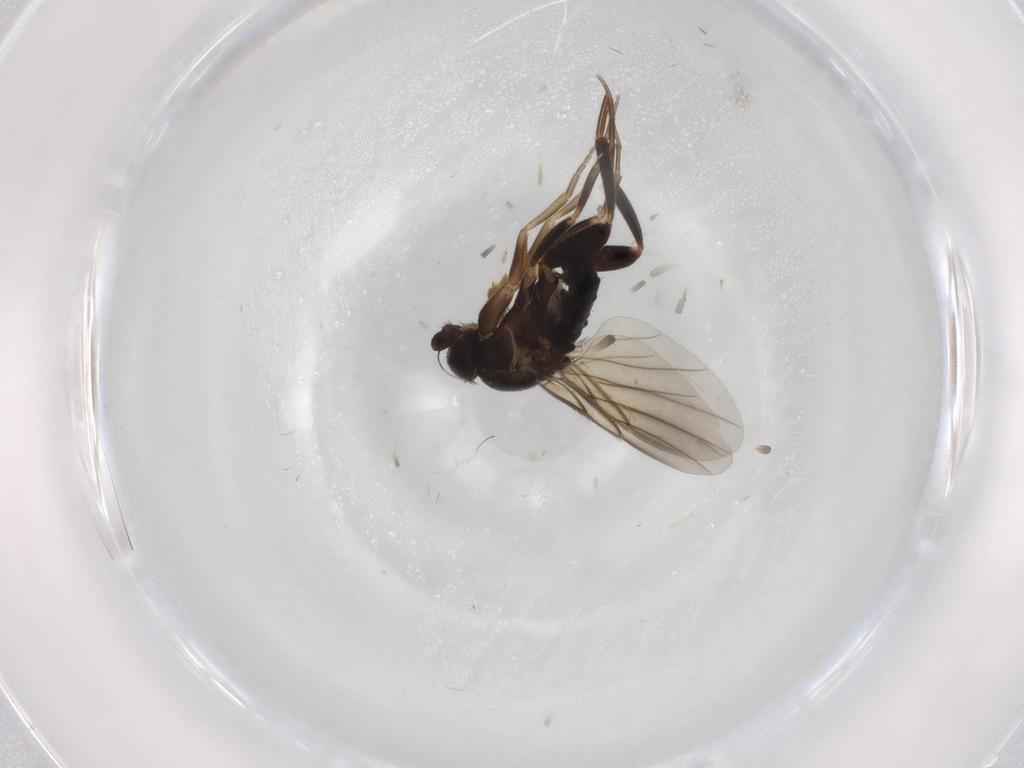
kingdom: Animalia
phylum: Arthropoda
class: Insecta
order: Diptera
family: Phoridae
